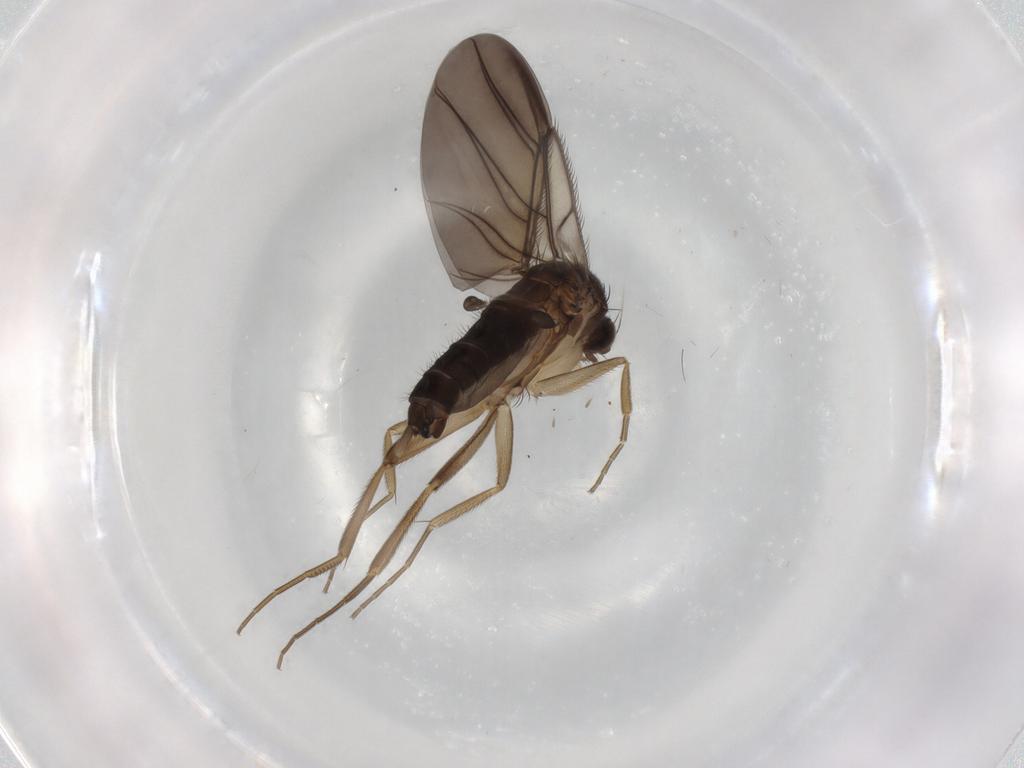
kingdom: Animalia
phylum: Arthropoda
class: Insecta
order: Diptera
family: Phoridae
